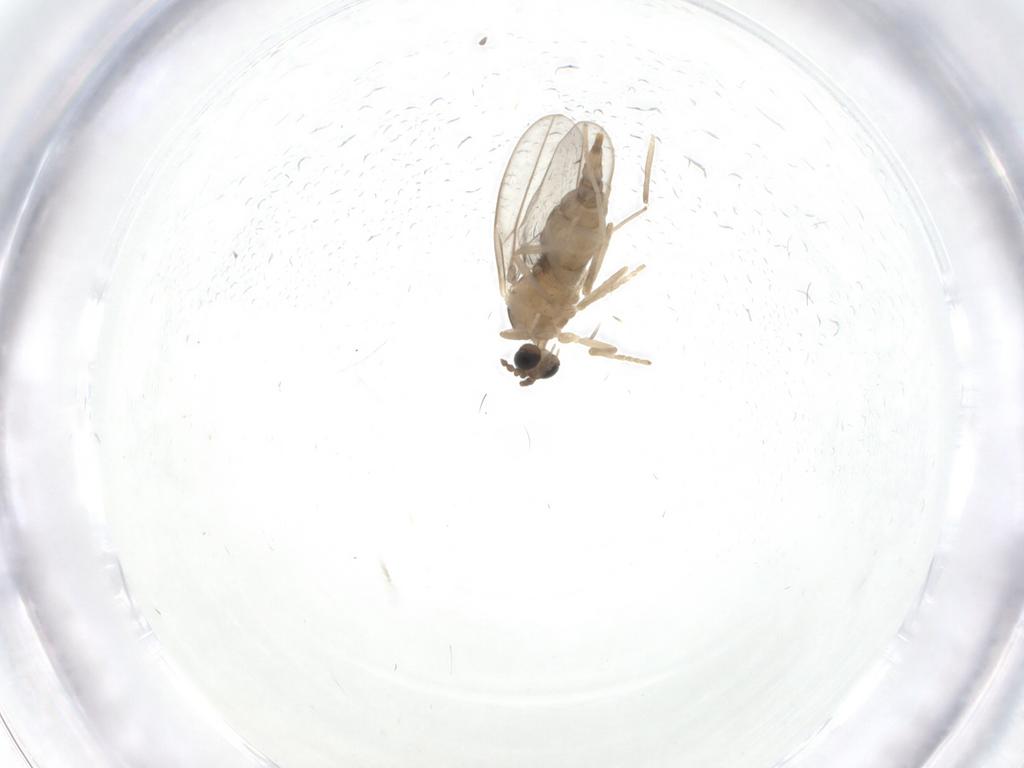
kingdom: Animalia
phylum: Arthropoda
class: Insecta
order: Diptera
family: Cecidomyiidae
